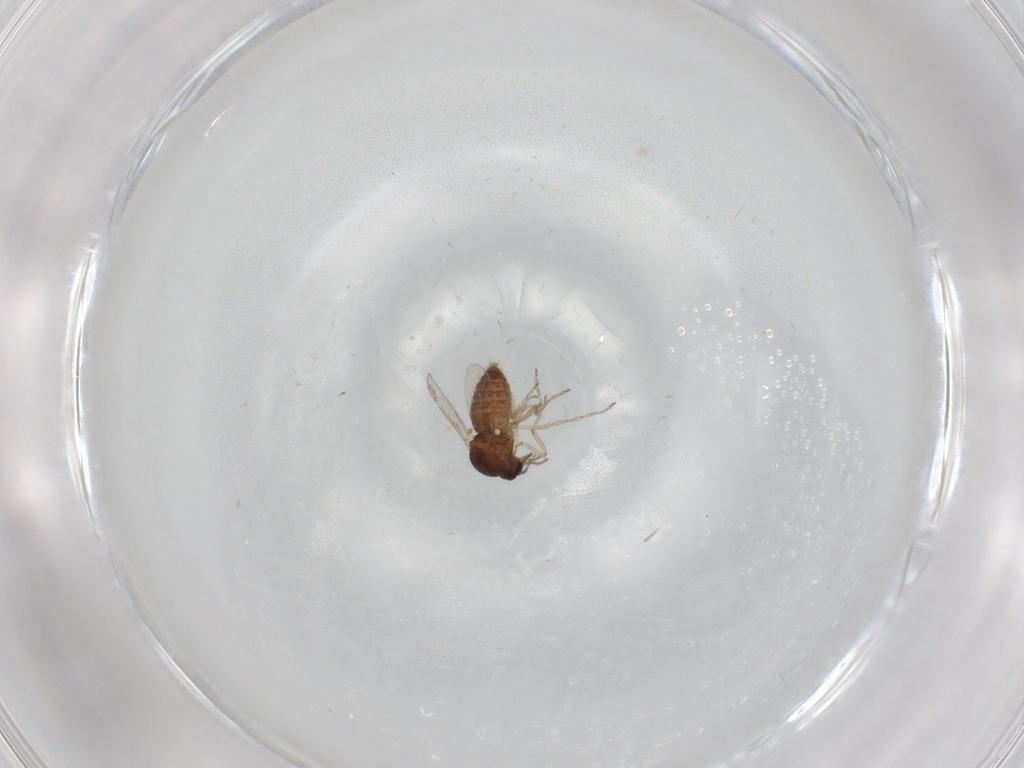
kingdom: Animalia
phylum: Arthropoda
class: Insecta
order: Diptera
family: Ceratopogonidae
